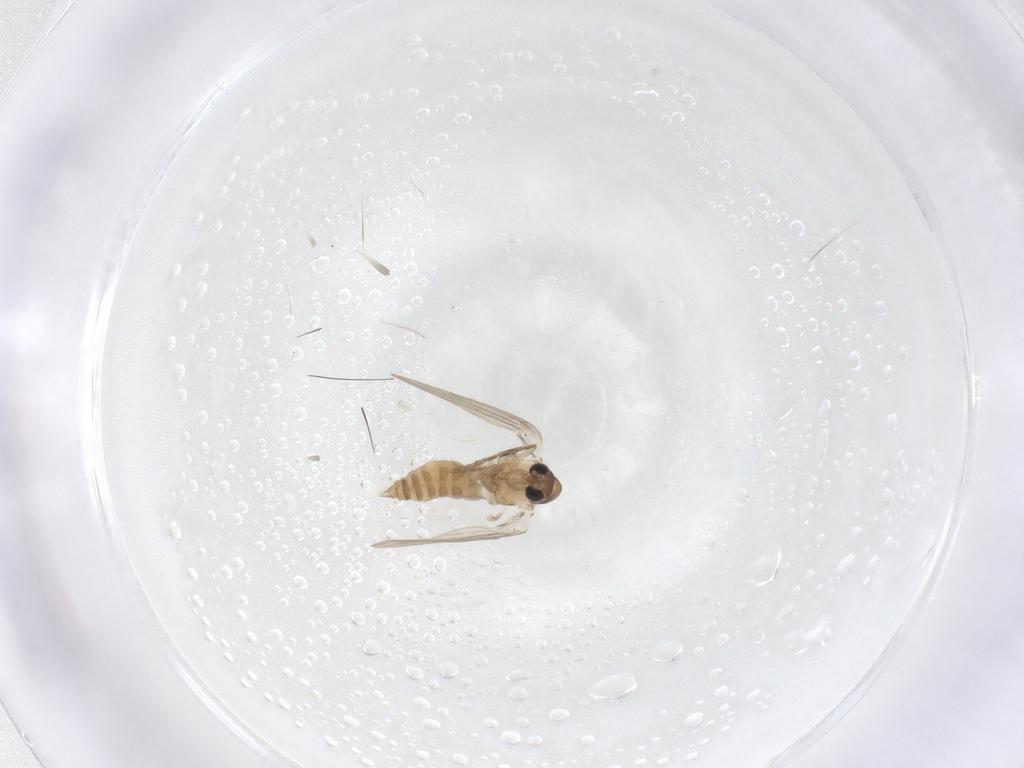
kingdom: Animalia
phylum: Arthropoda
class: Insecta
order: Diptera
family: Psychodidae
